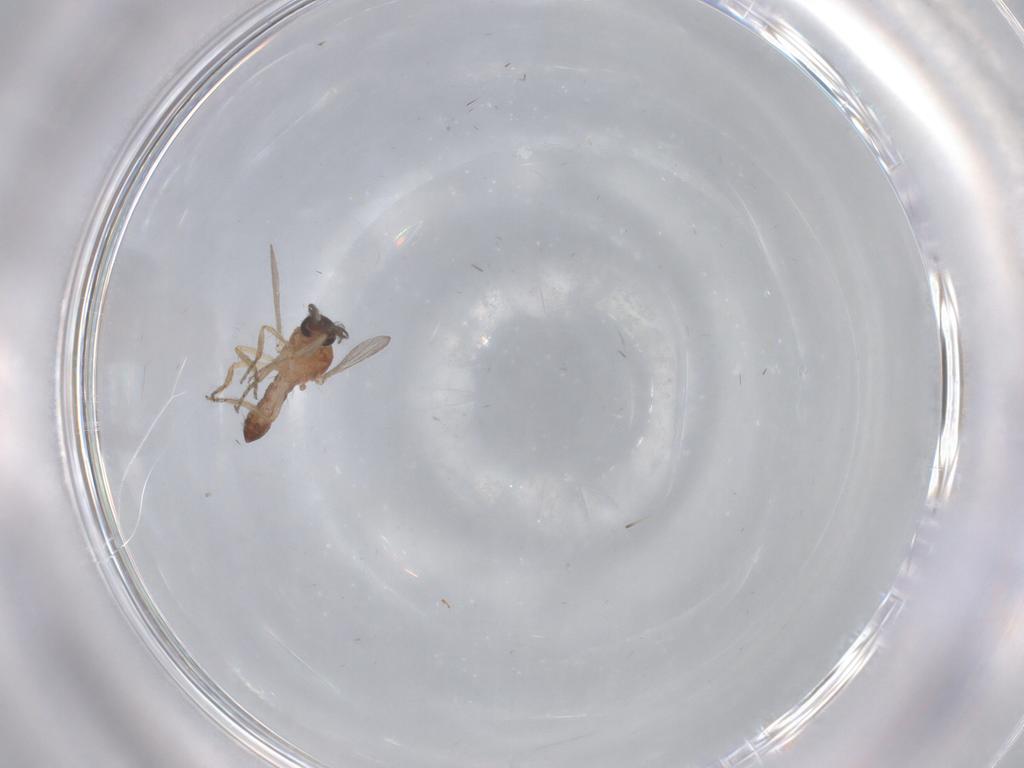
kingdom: Animalia
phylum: Arthropoda
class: Insecta
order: Diptera
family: Ceratopogonidae
